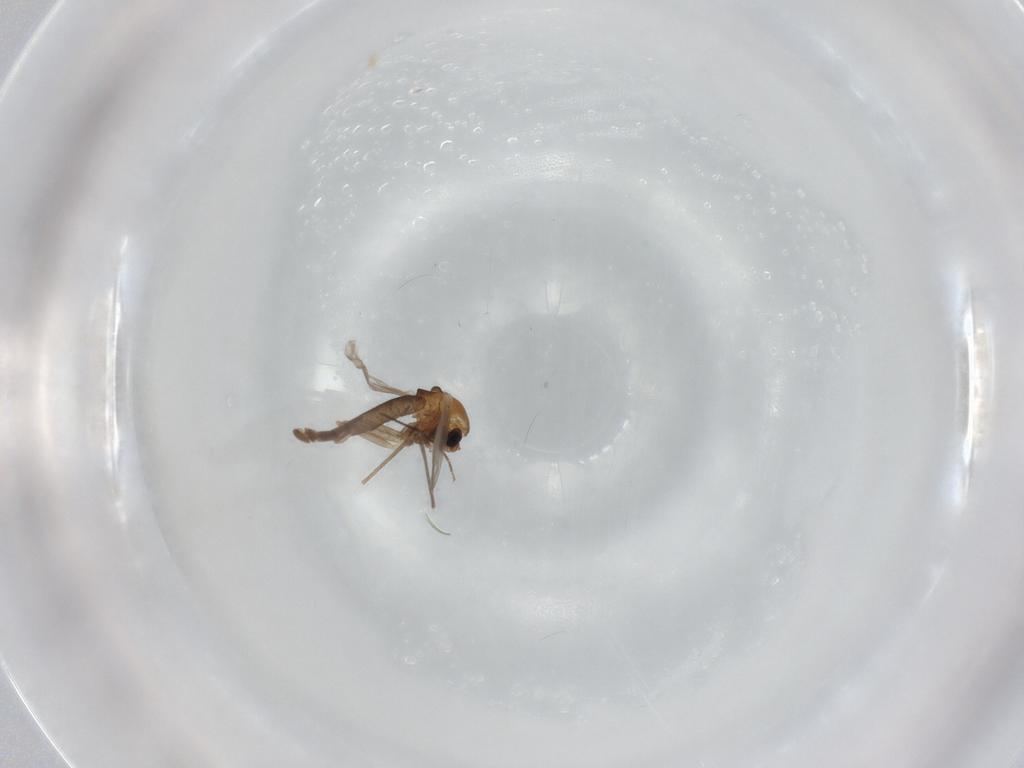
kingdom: Animalia
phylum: Arthropoda
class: Insecta
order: Diptera
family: Chironomidae
